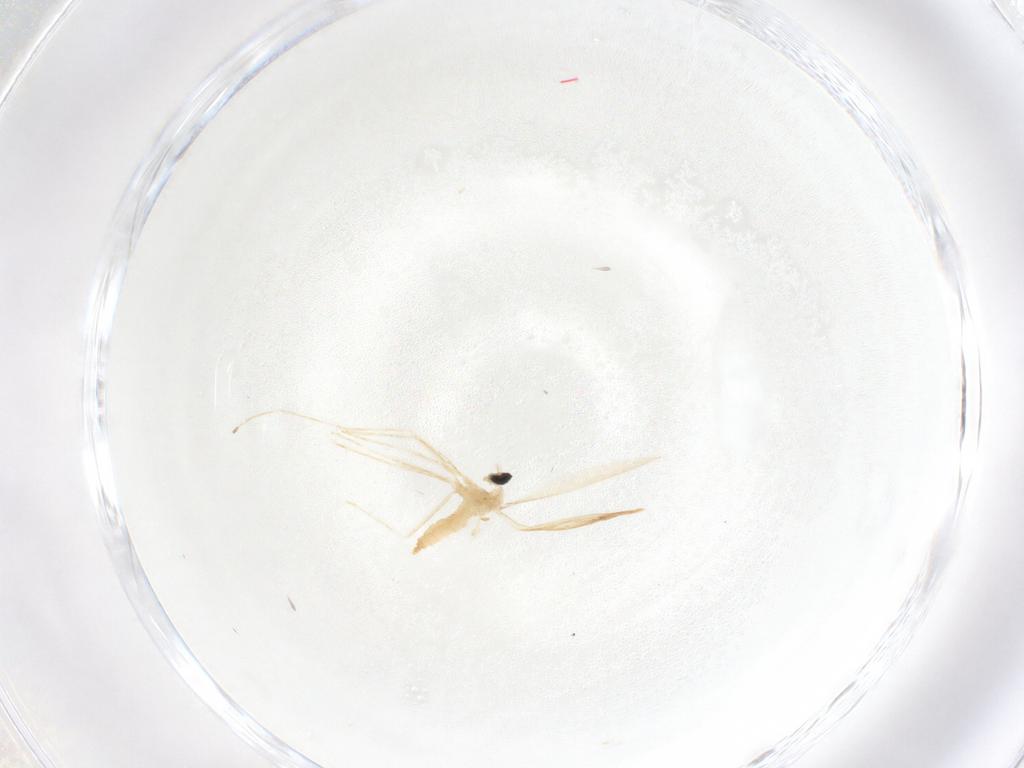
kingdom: Animalia
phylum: Arthropoda
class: Insecta
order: Diptera
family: Cecidomyiidae
